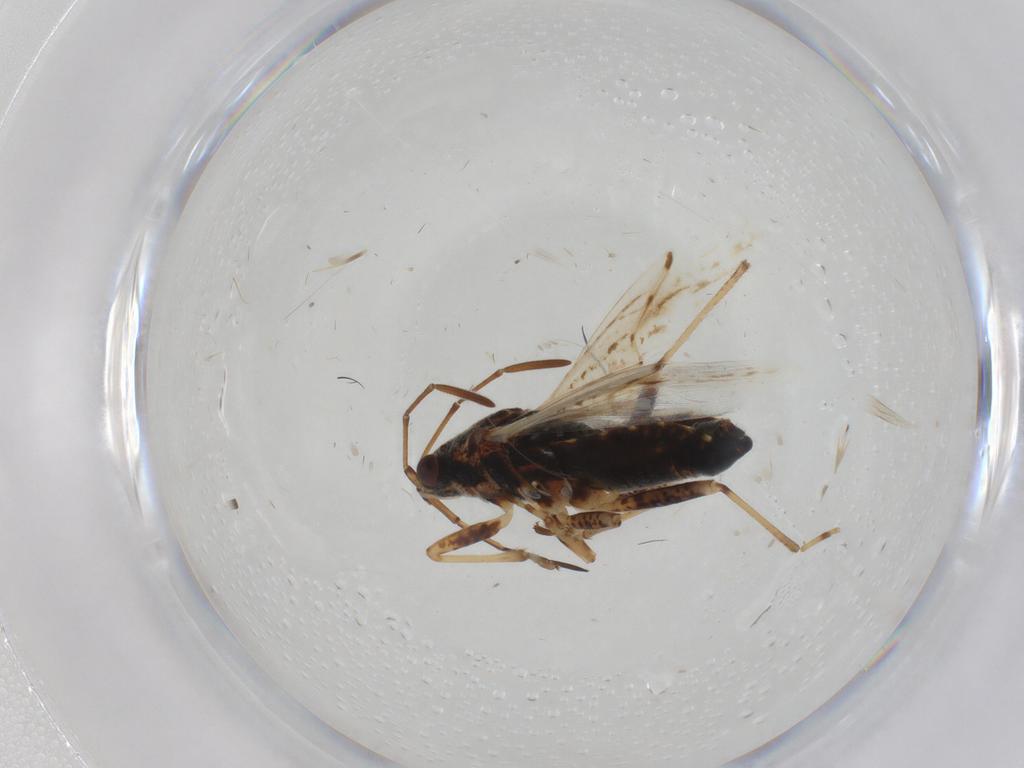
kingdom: Animalia
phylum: Arthropoda
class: Insecta
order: Hemiptera
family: Lygaeidae
